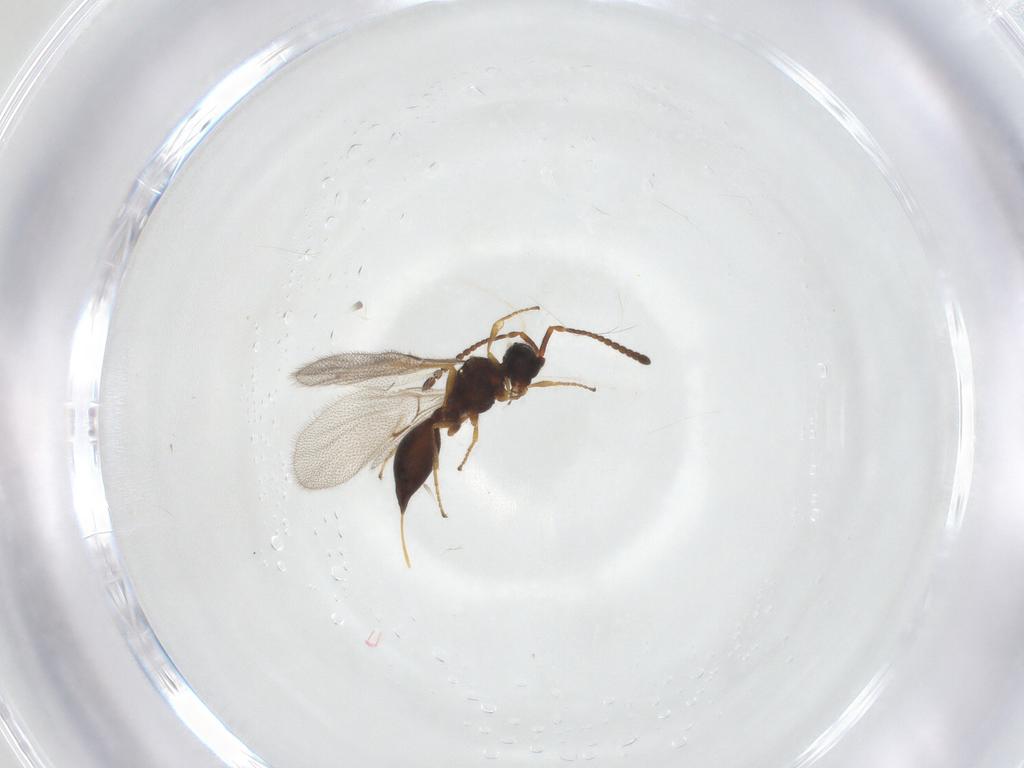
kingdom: Animalia
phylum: Arthropoda
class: Insecta
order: Hymenoptera
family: Diapriidae
